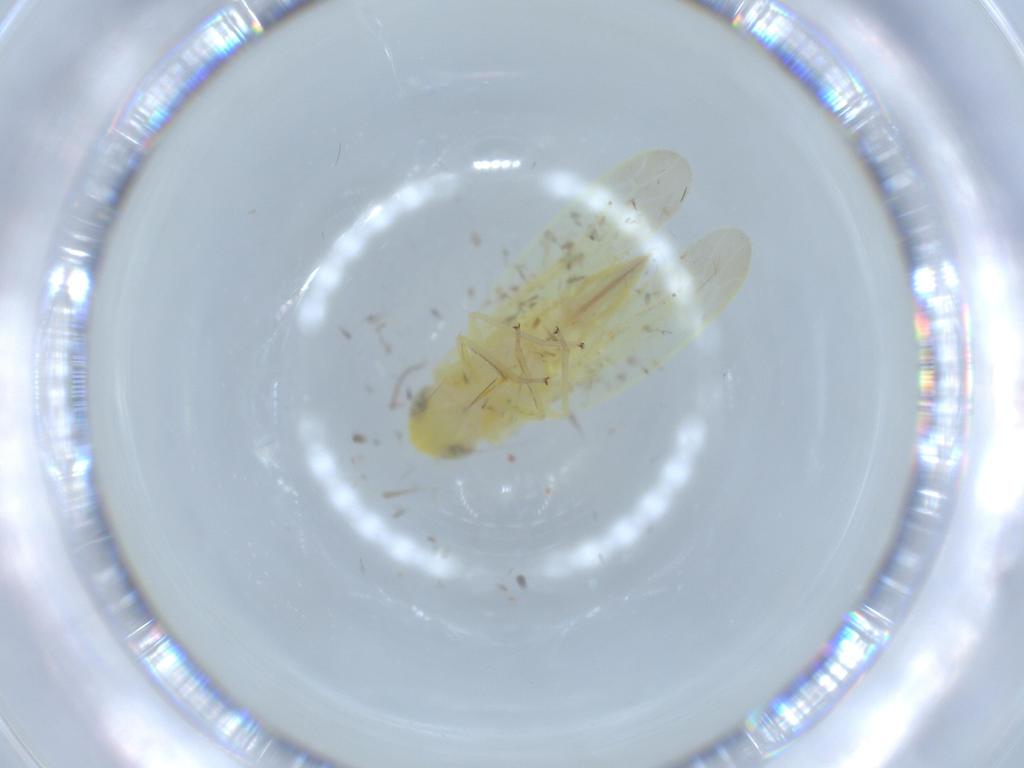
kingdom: Animalia
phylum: Arthropoda
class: Insecta
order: Hemiptera
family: Cicadellidae
